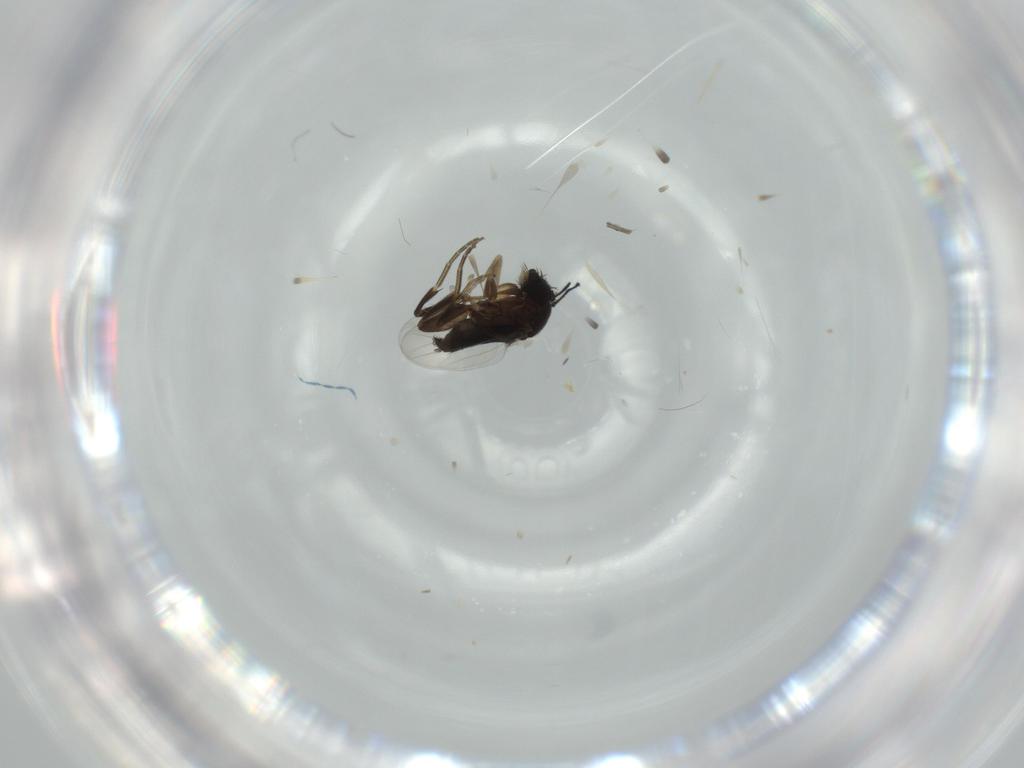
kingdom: Animalia
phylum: Arthropoda
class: Insecta
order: Diptera
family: Phoridae
